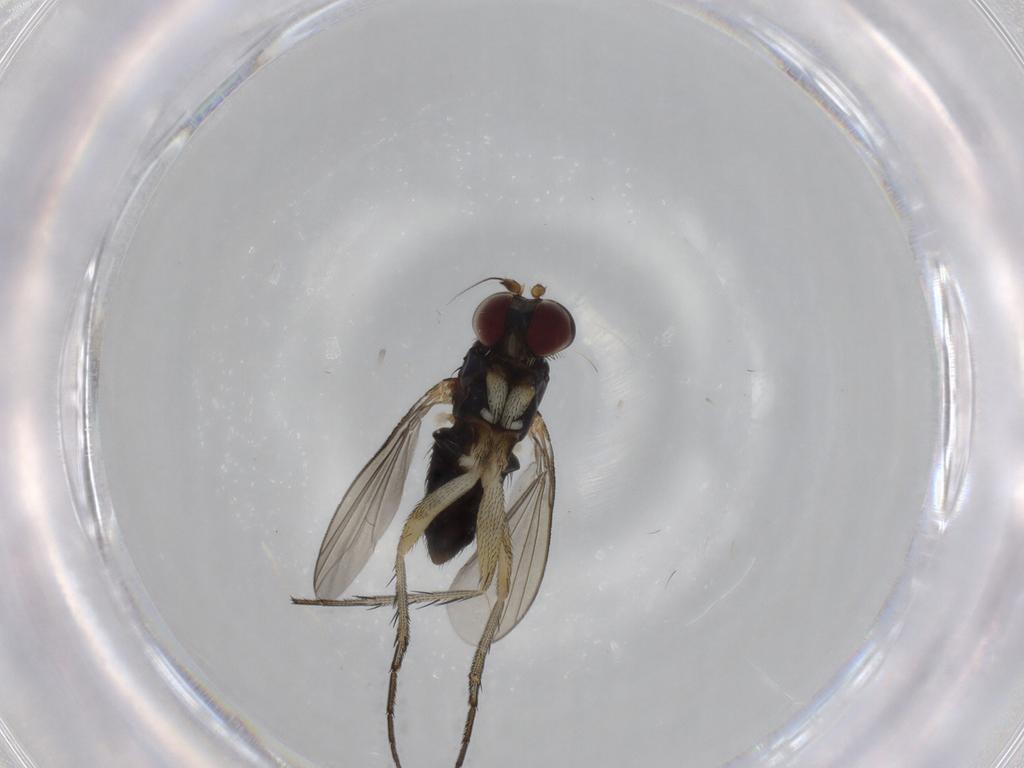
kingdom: Animalia
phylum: Arthropoda
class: Insecta
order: Diptera
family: Dolichopodidae
